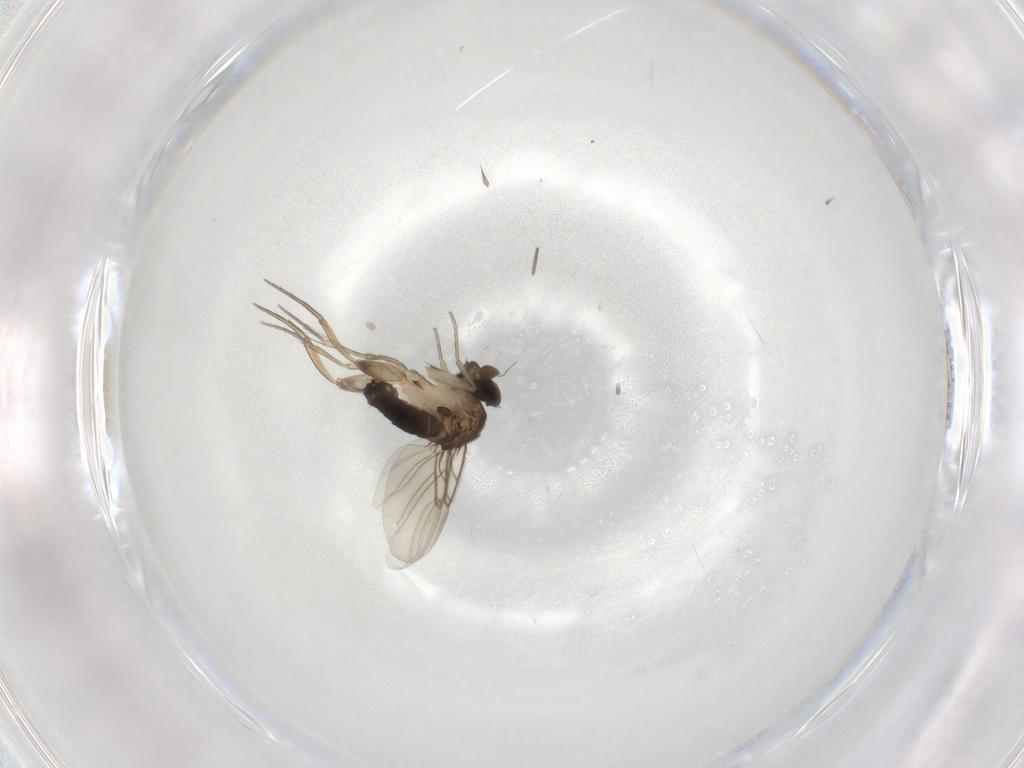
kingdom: Animalia
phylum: Arthropoda
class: Insecta
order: Diptera
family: Phoridae
